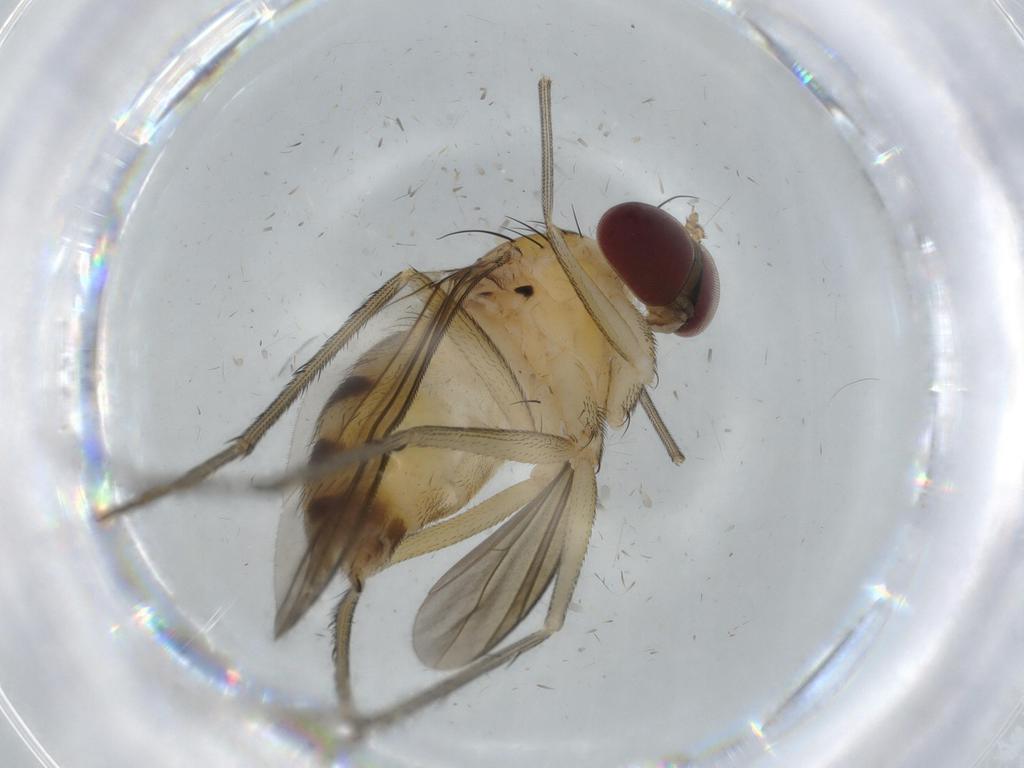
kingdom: Animalia
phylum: Arthropoda
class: Insecta
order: Diptera
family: Dolichopodidae
